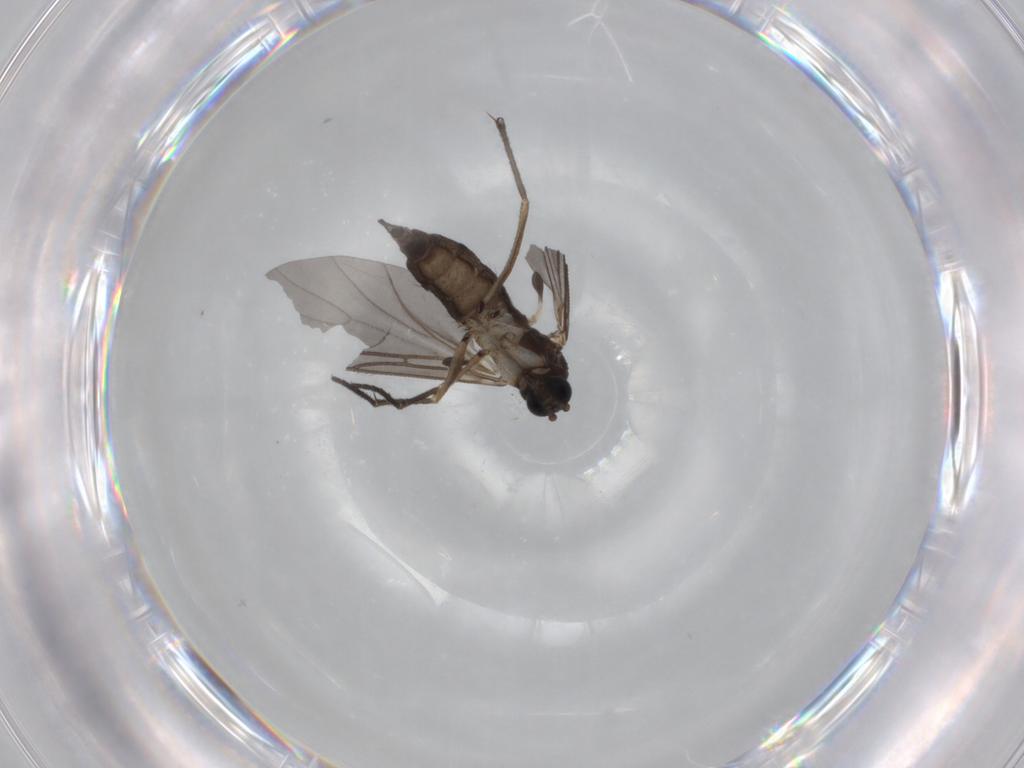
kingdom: Animalia
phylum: Arthropoda
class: Insecta
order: Diptera
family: Sciaridae
